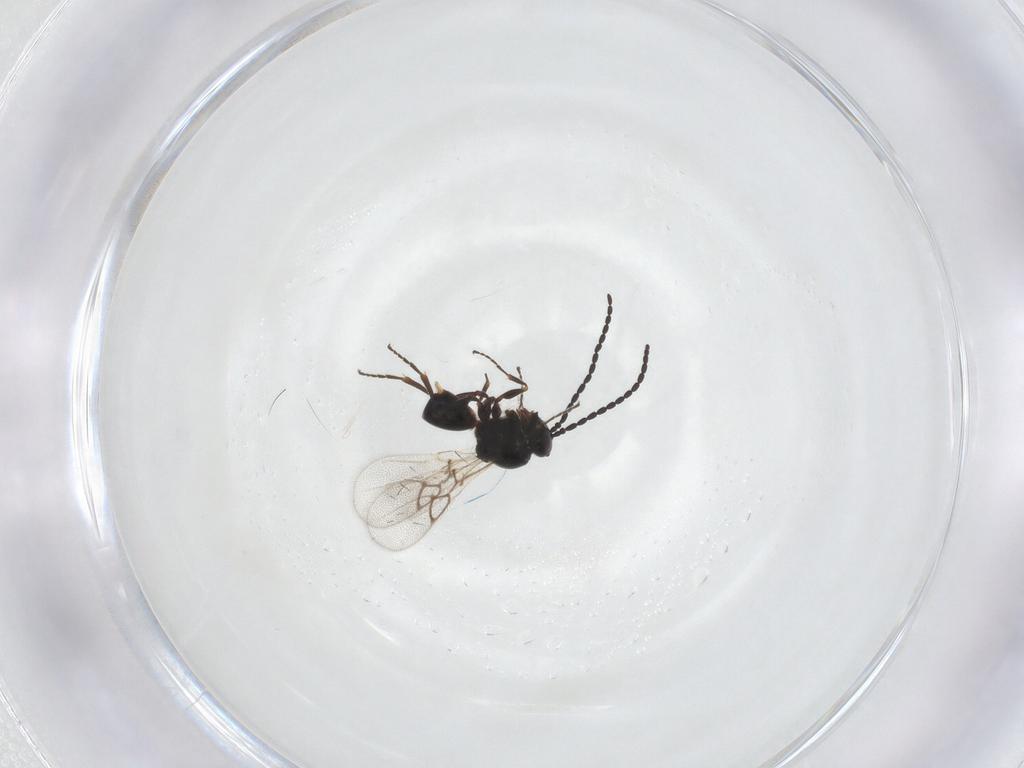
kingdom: Animalia
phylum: Arthropoda
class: Insecta
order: Hymenoptera
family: Figitidae
